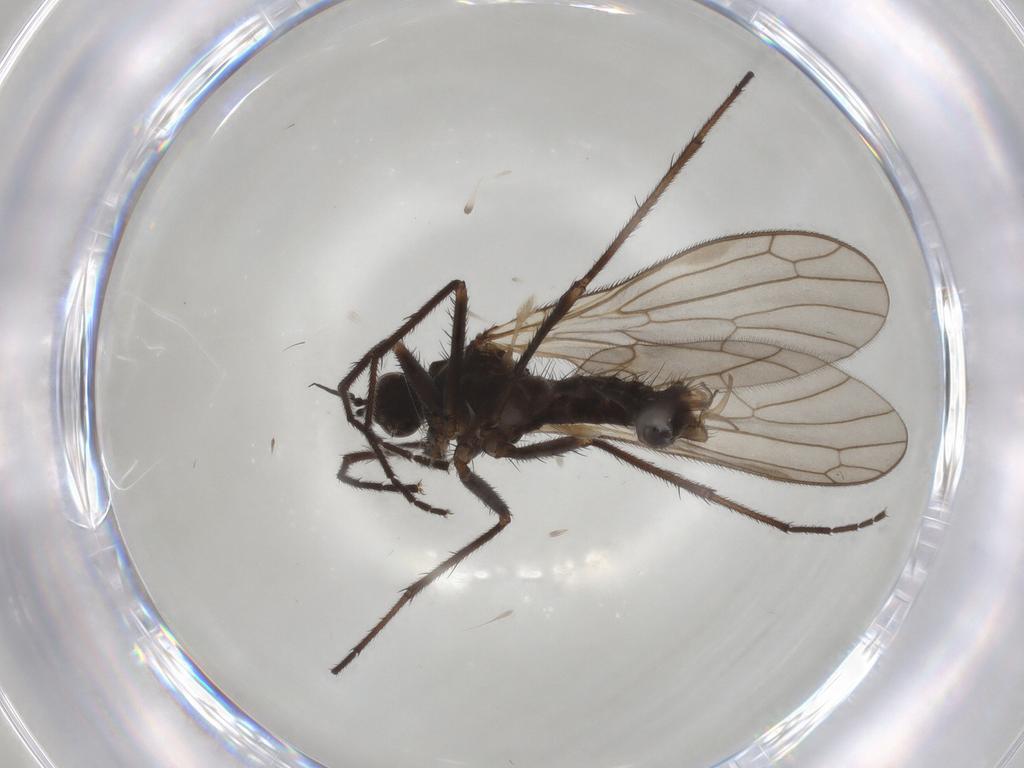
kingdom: Animalia
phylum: Arthropoda
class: Insecta
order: Diptera
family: Empididae
